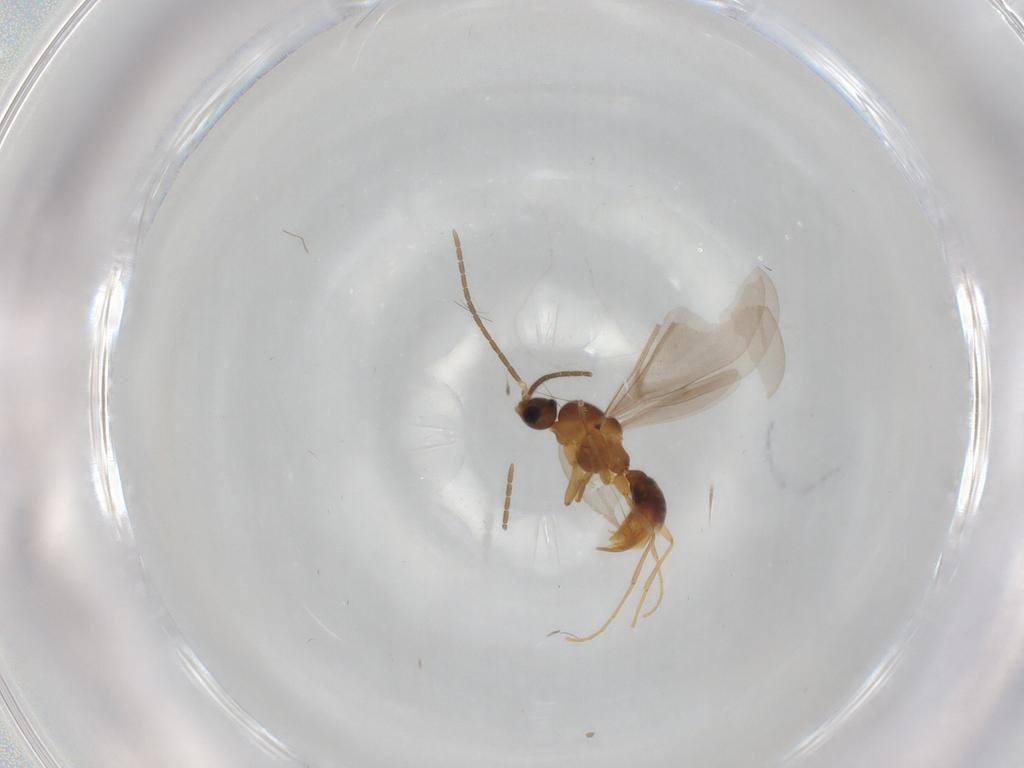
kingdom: Animalia
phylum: Arthropoda
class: Insecta
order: Hymenoptera
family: Formicidae
